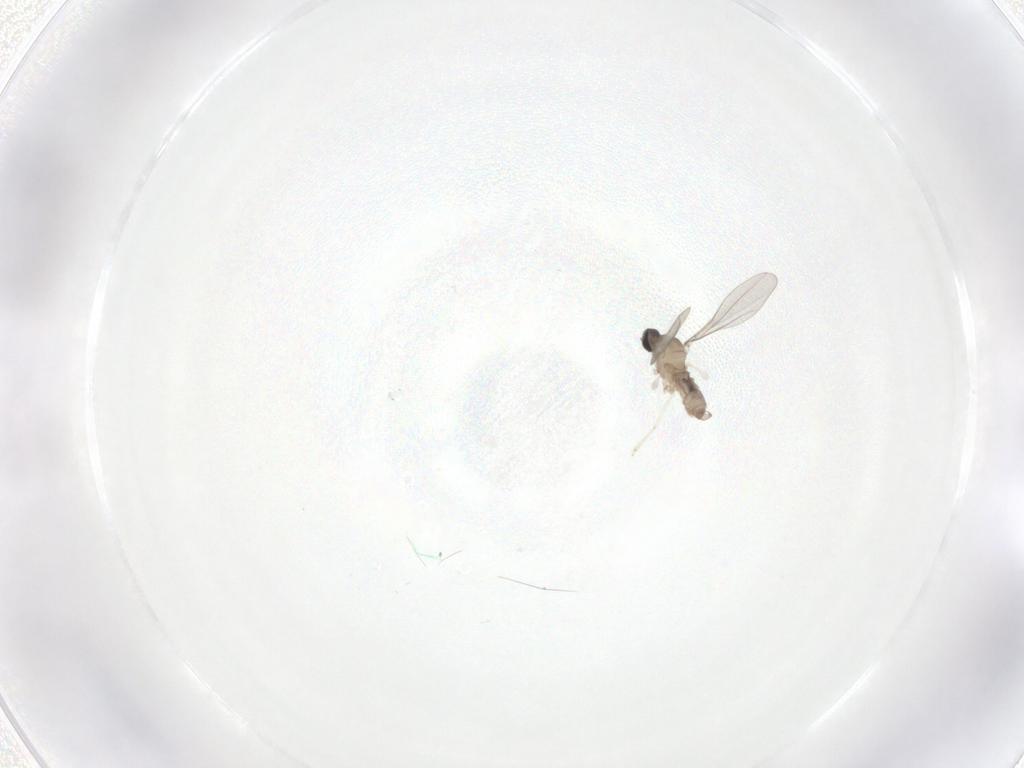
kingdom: Animalia
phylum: Arthropoda
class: Insecta
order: Diptera
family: Cecidomyiidae
